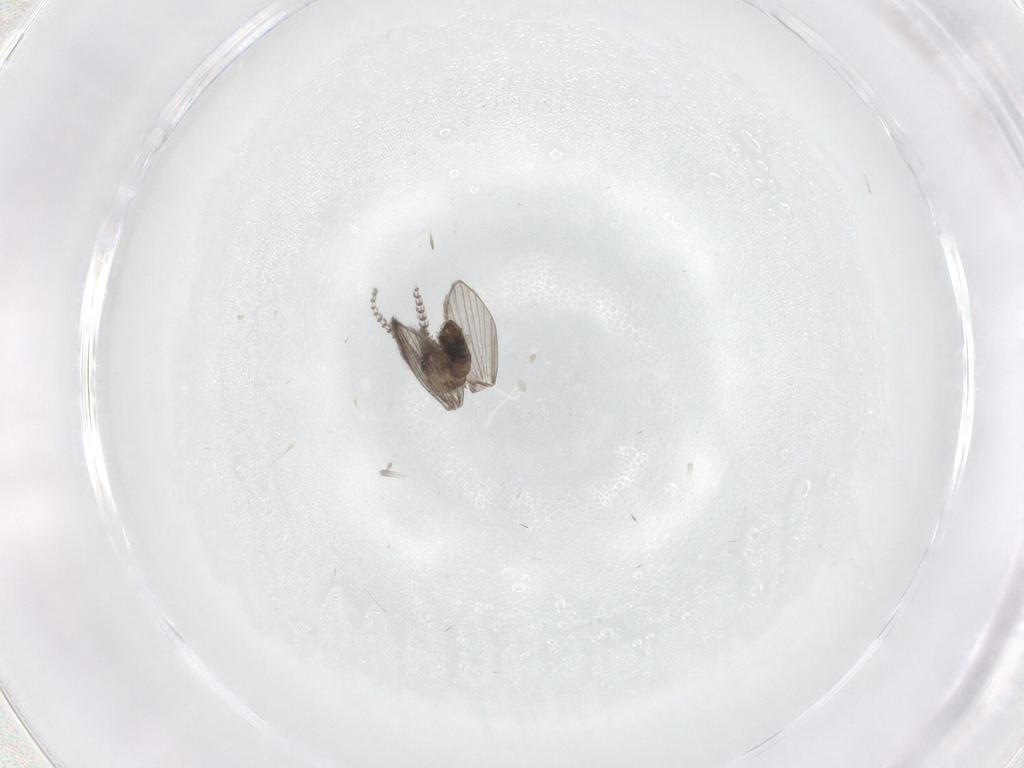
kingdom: Animalia
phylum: Arthropoda
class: Insecta
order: Diptera
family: Psychodidae
